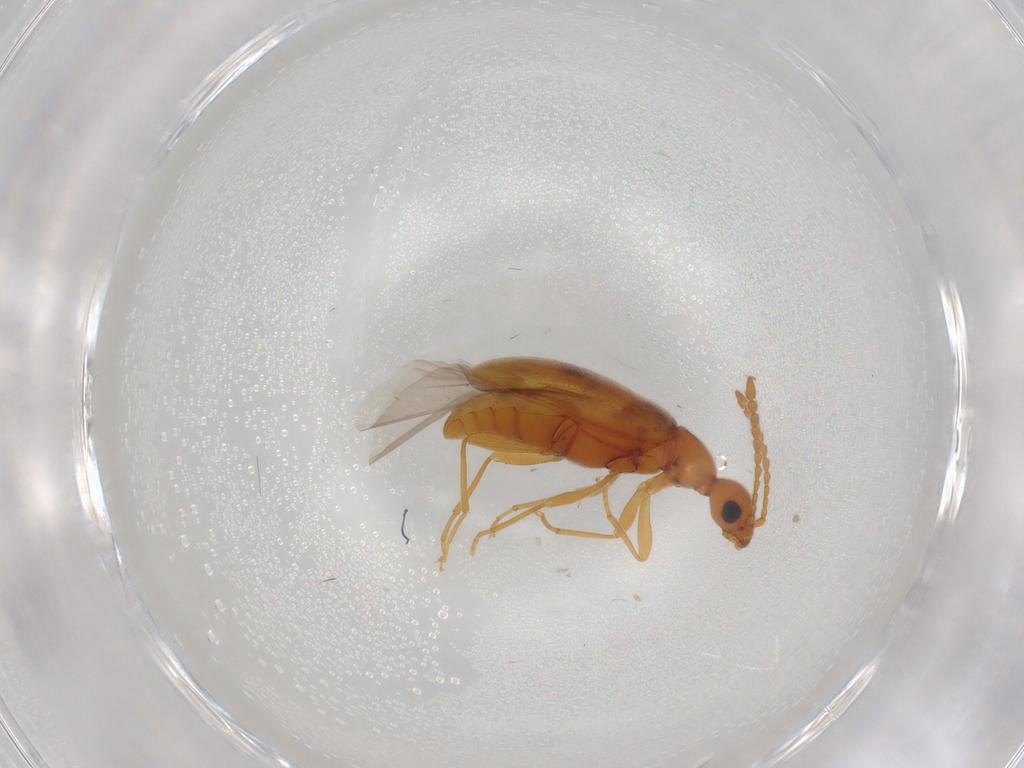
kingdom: Animalia
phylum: Arthropoda
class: Insecta
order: Coleoptera
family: Anthicidae
